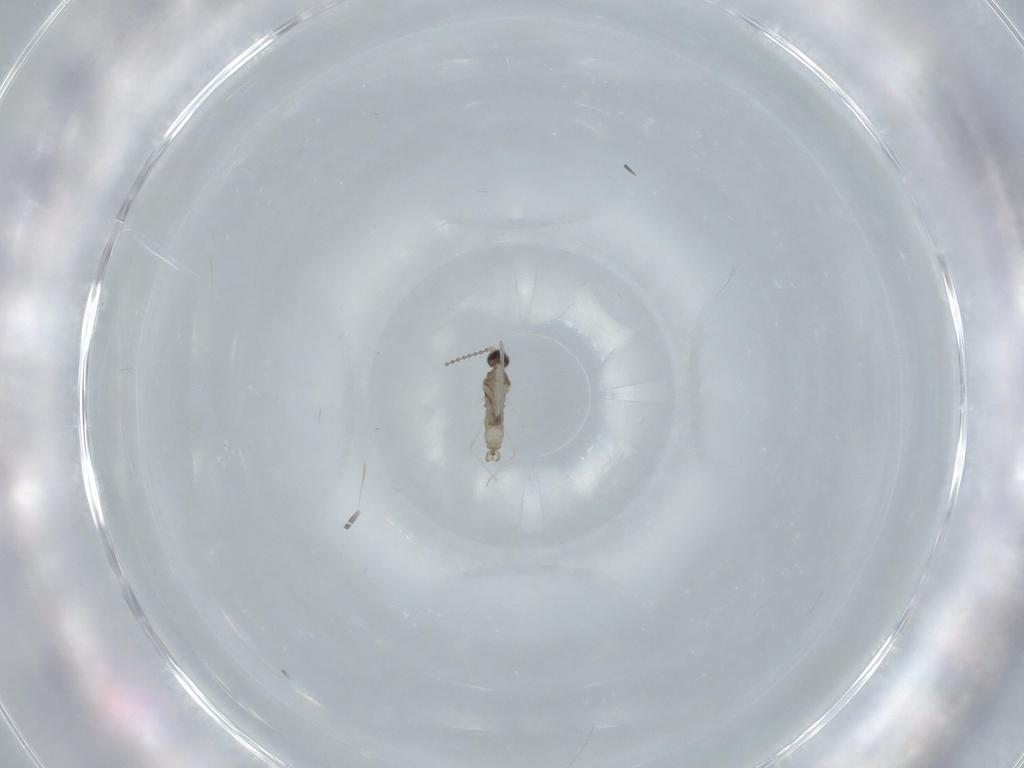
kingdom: Animalia
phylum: Arthropoda
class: Insecta
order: Diptera
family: Cecidomyiidae
